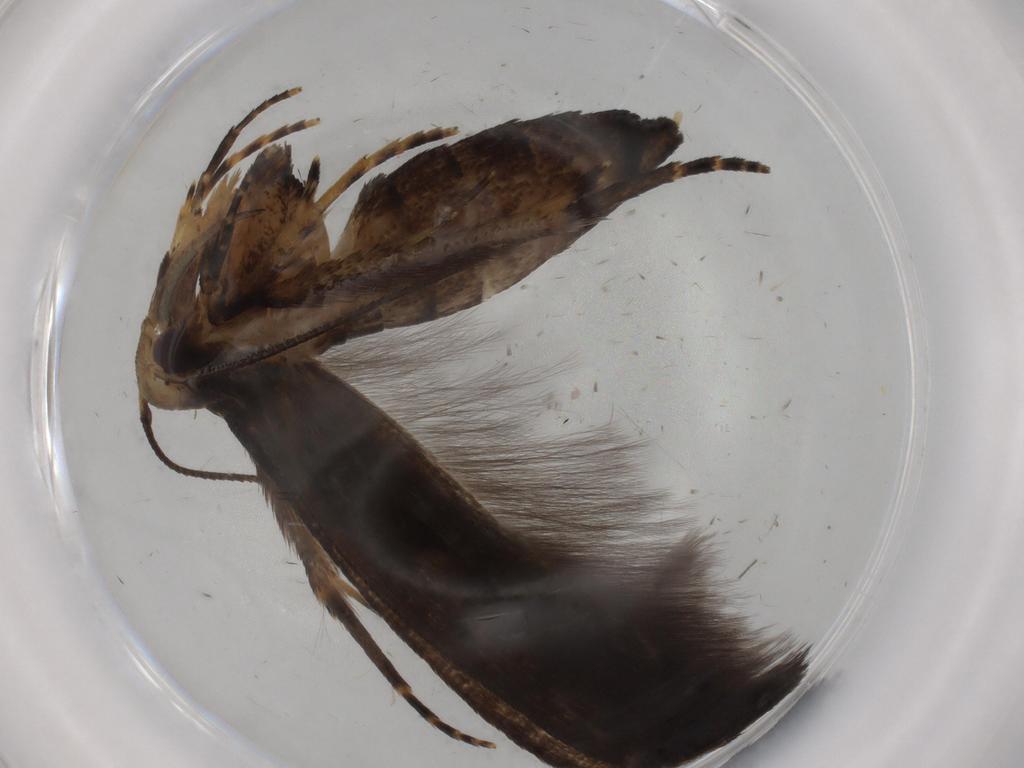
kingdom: Animalia
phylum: Arthropoda
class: Insecta
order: Lepidoptera
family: Coleophoridae
